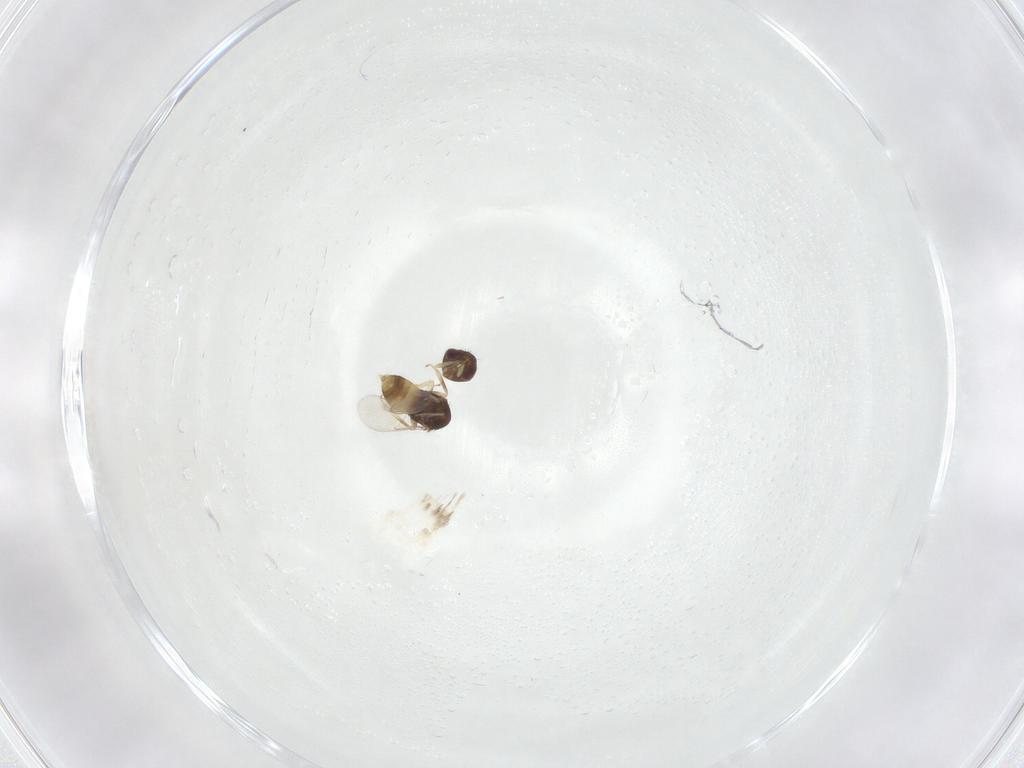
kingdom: Animalia
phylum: Arthropoda
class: Insecta
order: Hymenoptera
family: Aphelinidae
